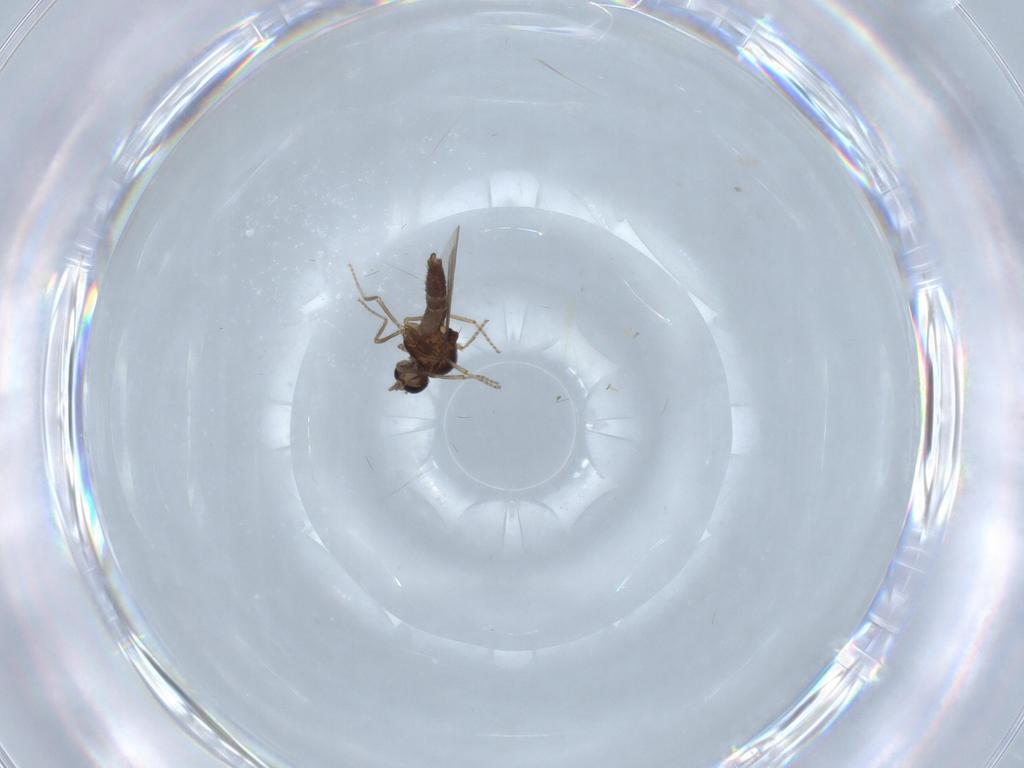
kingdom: Animalia
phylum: Arthropoda
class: Insecta
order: Diptera
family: Ceratopogonidae
